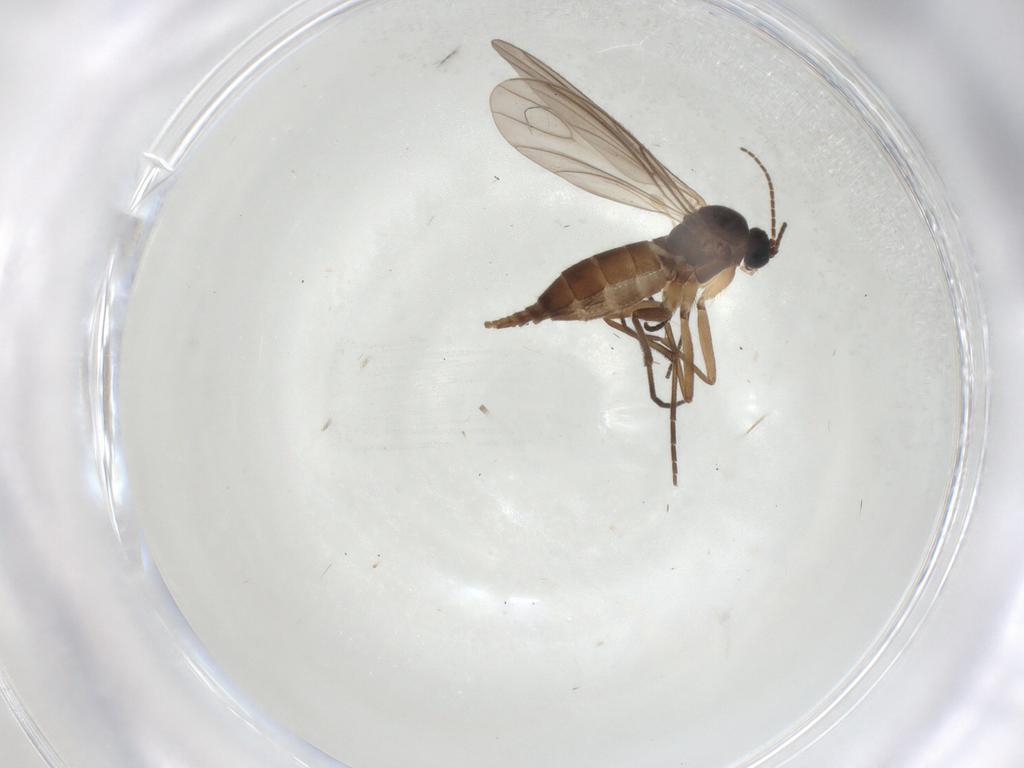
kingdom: Animalia
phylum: Arthropoda
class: Insecta
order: Diptera
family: Sciaridae
